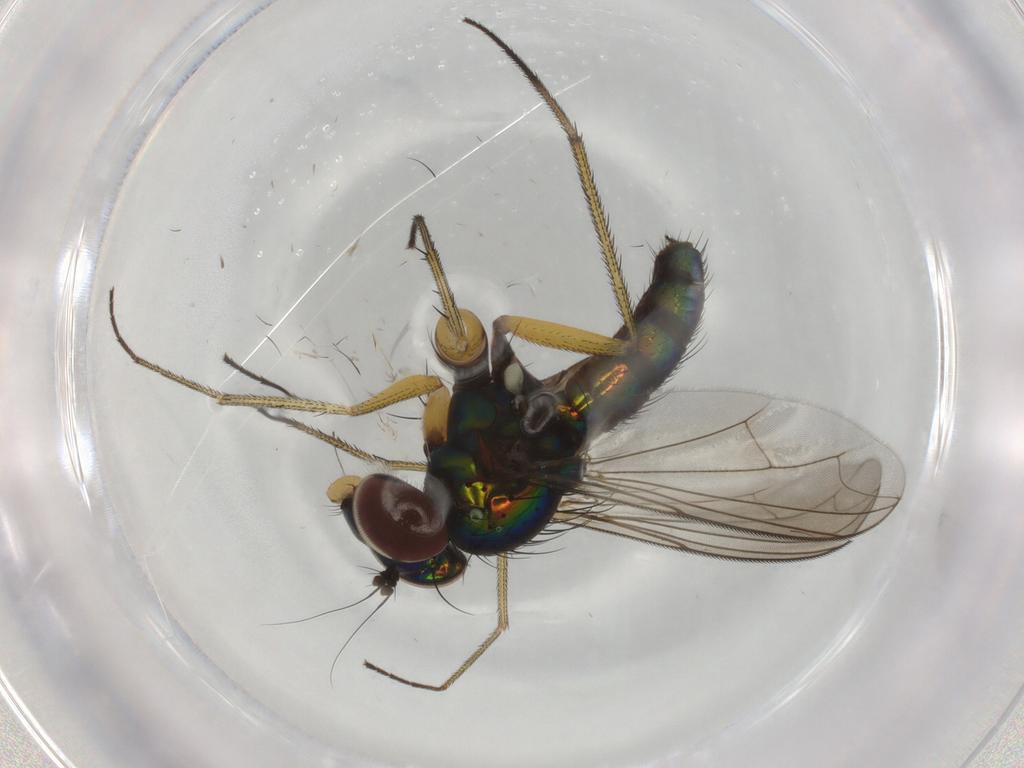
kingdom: Animalia
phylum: Arthropoda
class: Insecta
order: Diptera
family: Dolichopodidae
